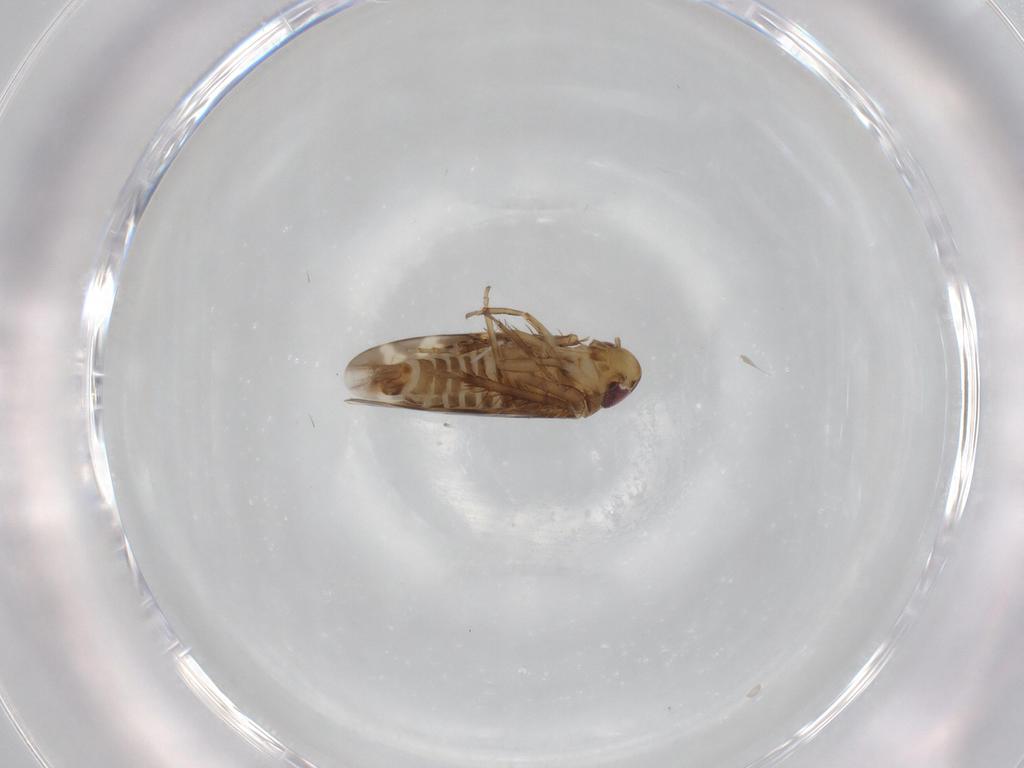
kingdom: Animalia
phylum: Arthropoda
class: Insecta
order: Hemiptera
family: Cicadellidae
